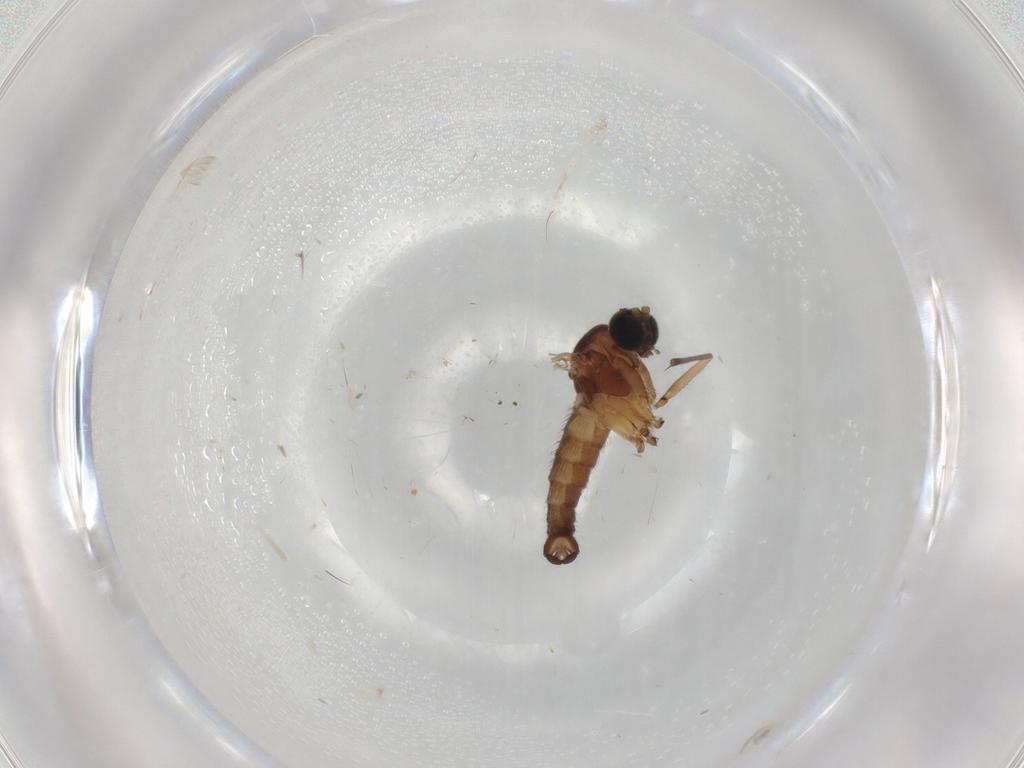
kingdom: Animalia
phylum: Arthropoda
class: Insecta
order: Diptera
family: Sciaridae
